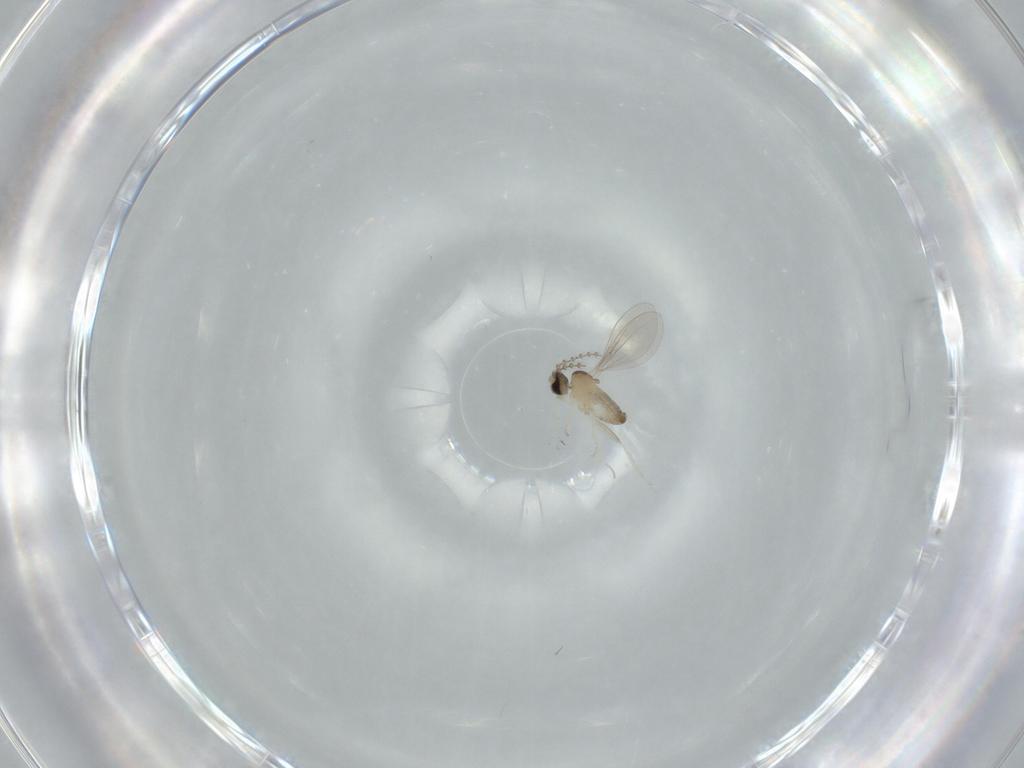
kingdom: Animalia
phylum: Arthropoda
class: Insecta
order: Diptera
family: Cecidomyiidae
